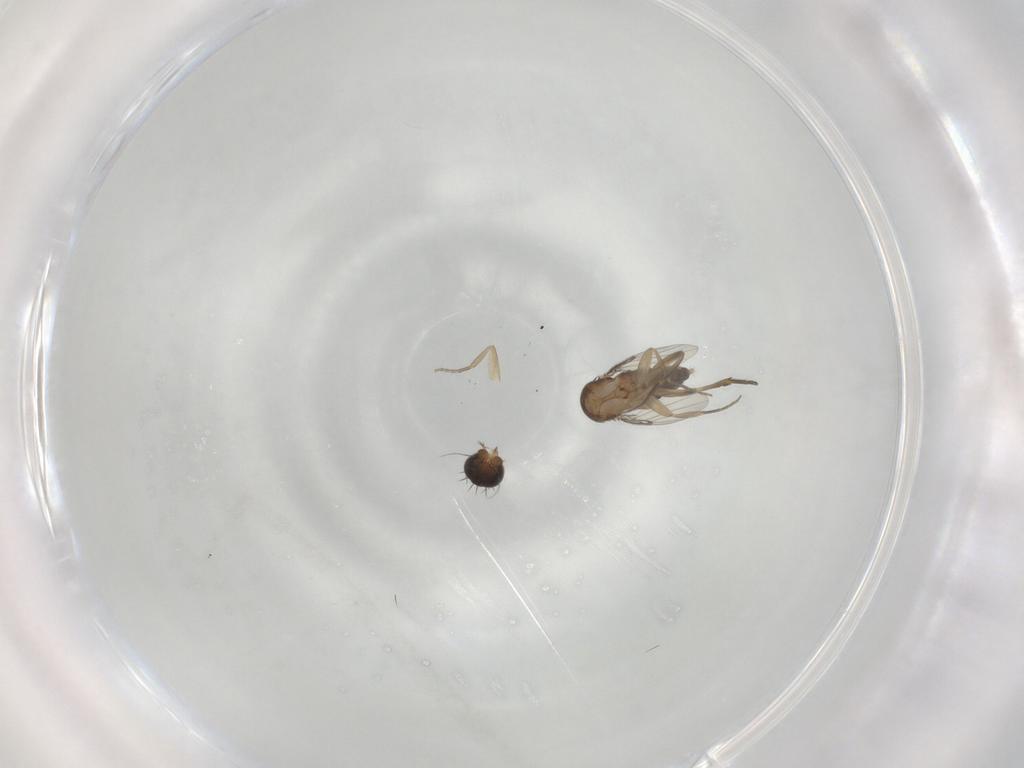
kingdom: Animalia
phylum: Arthropoda
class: Insecta
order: Diptera
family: Phoridae
